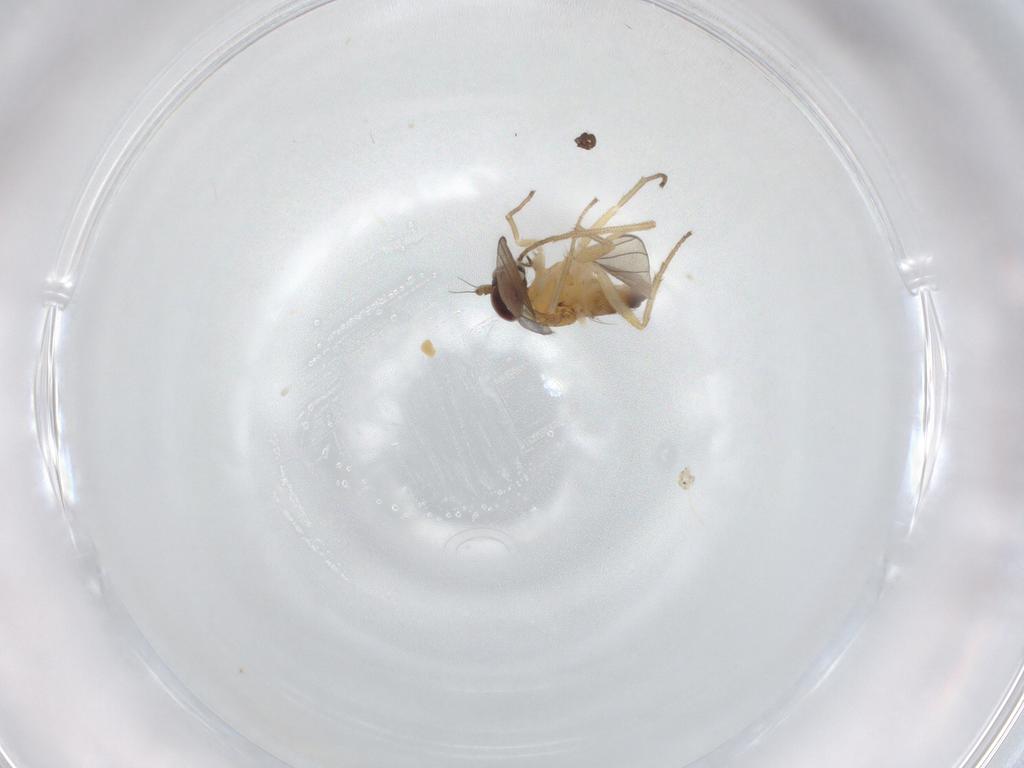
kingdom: Animalia
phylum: Arthropoda
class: Insecta
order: Diptera
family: Dolichopodidae
